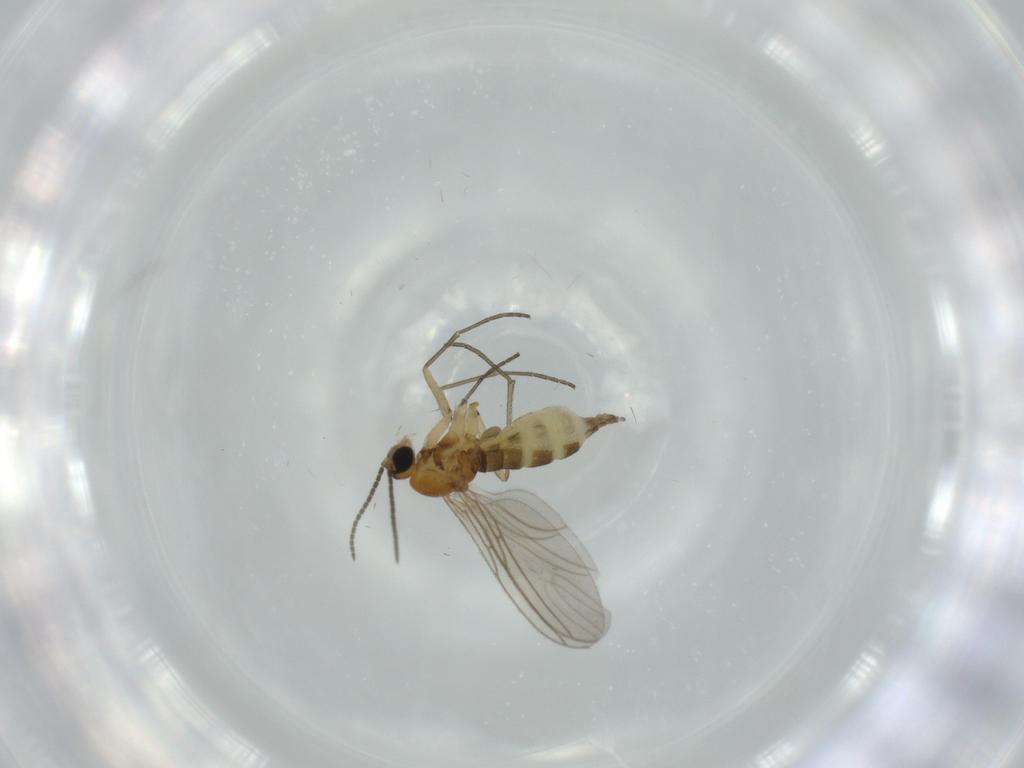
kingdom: Animalia
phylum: Arthropoda
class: Insecta
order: Diptera
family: Sciaridae
